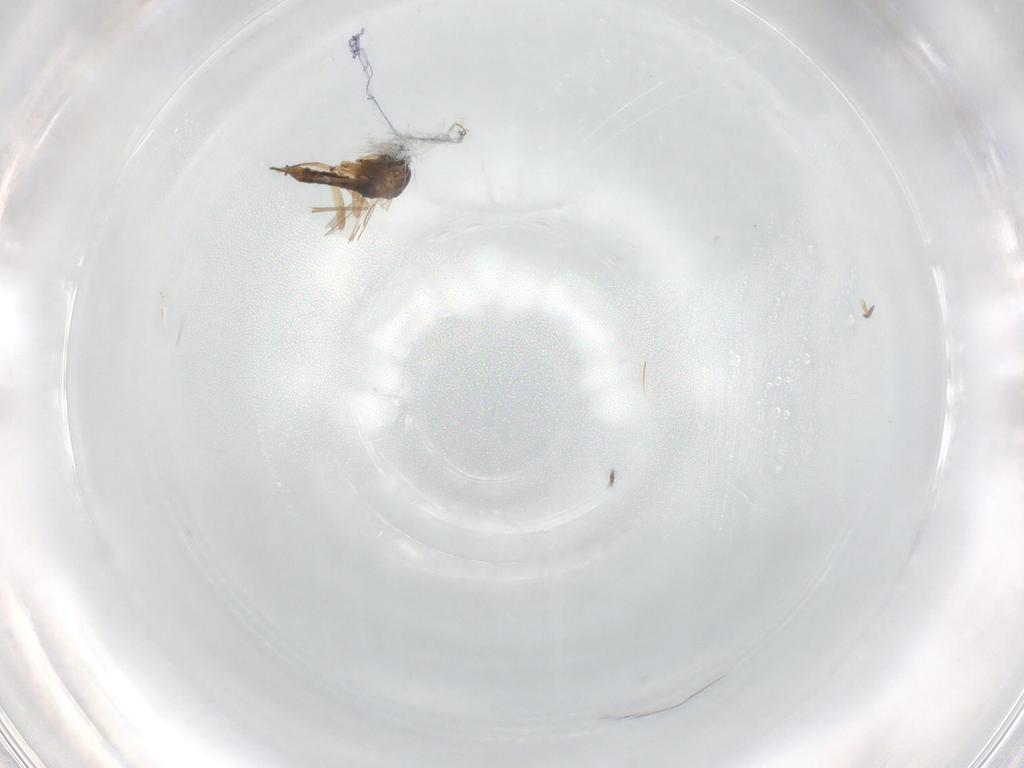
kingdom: Animalia
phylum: Arthropoda
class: Insecta
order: Diptera
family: Sciaridae
